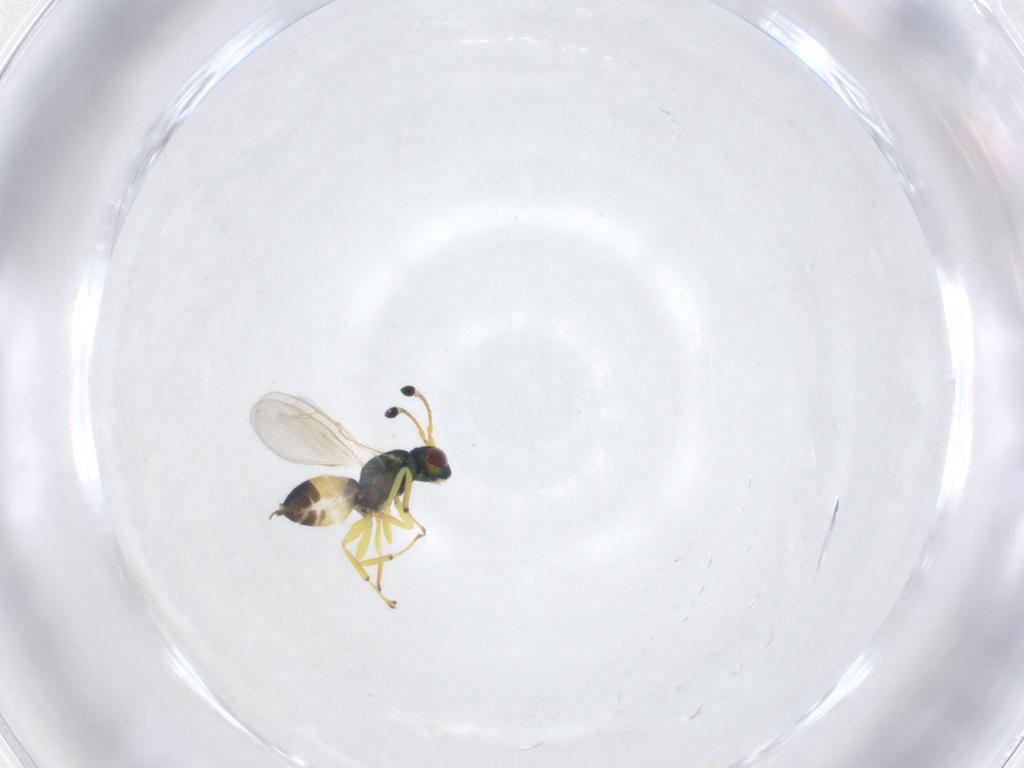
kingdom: Animalia
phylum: Arthropoda
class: Insecta
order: Hymenoptera
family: Pteromalidae
